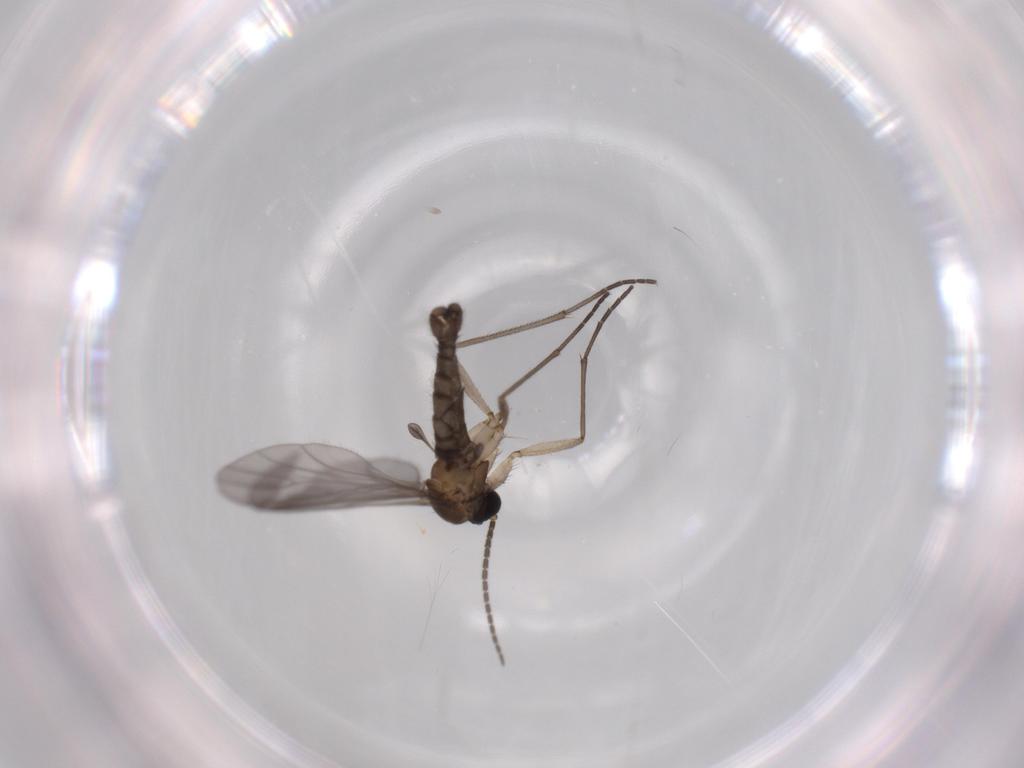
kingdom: Animalia
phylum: Arthropoda
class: Insecta
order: Diptera
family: Sciaridae
